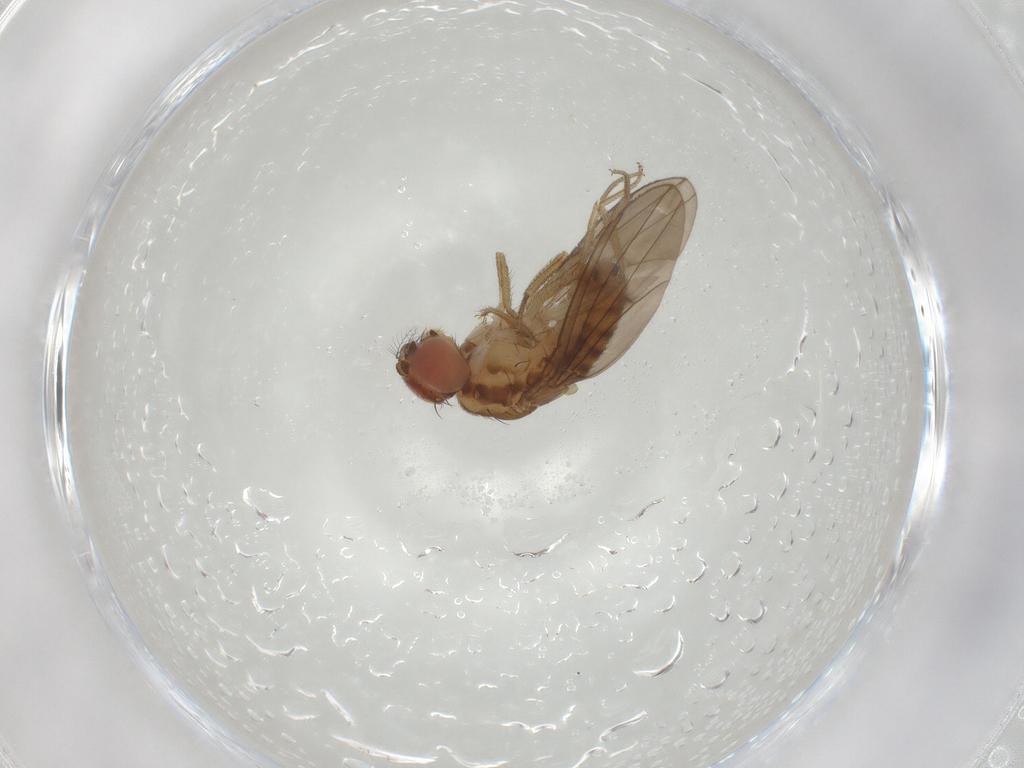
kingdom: Animalia
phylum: Arthropoda
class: Insecta
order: Diptera
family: Muscidae
